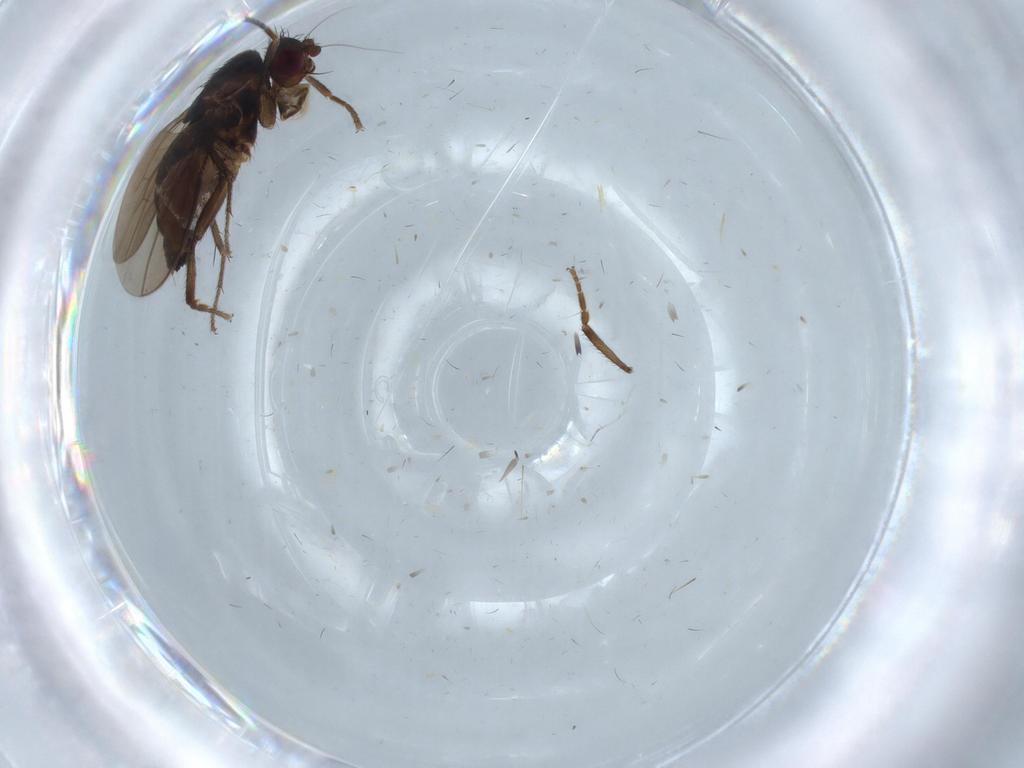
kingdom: Animalia
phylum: Arthropoda
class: Insecta
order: Diptera
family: Sphaeroceridae
